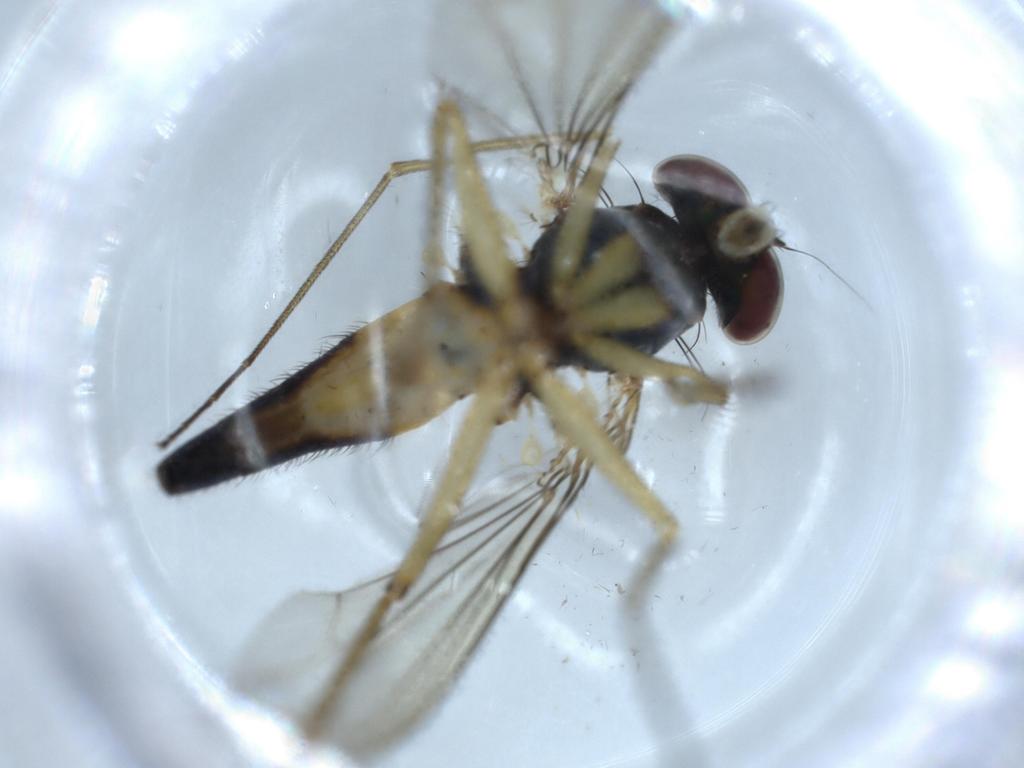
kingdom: Animalia
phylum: Arthropoda
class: Insecta
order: Diptera
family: Dolichopodidae
